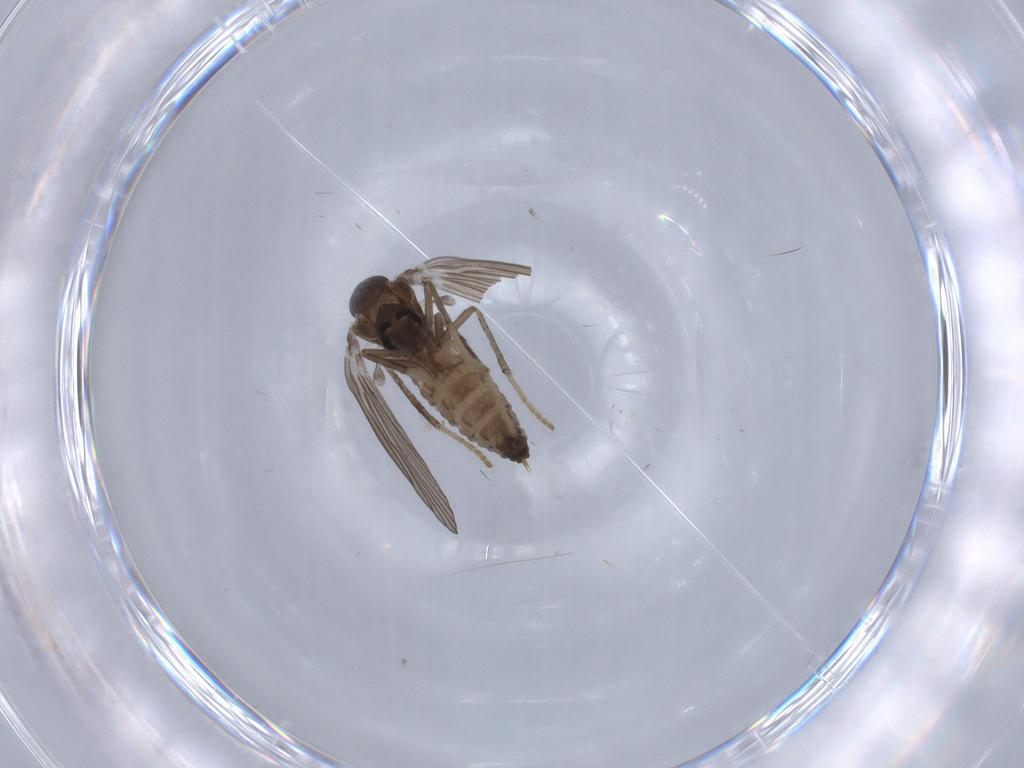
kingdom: Animalia
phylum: Arthropoda
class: Insecta
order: Diptera
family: Psychodidae
